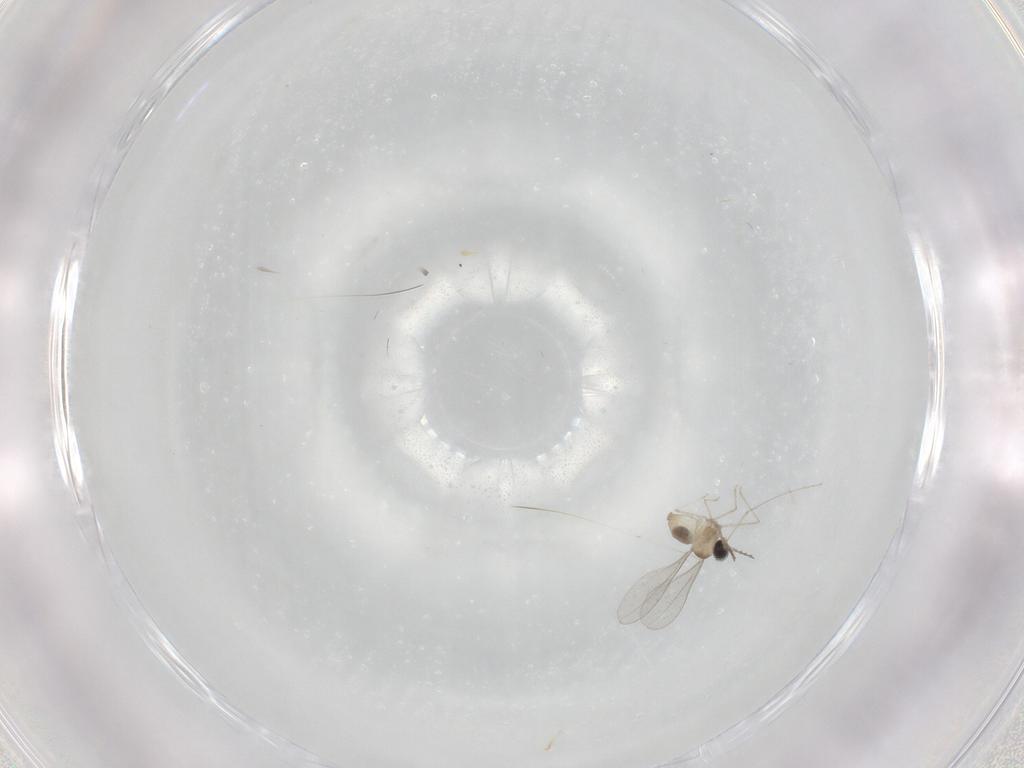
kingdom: Animalia
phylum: Arthropoda
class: Insecta
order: Diptera
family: Cecidomyiidae
